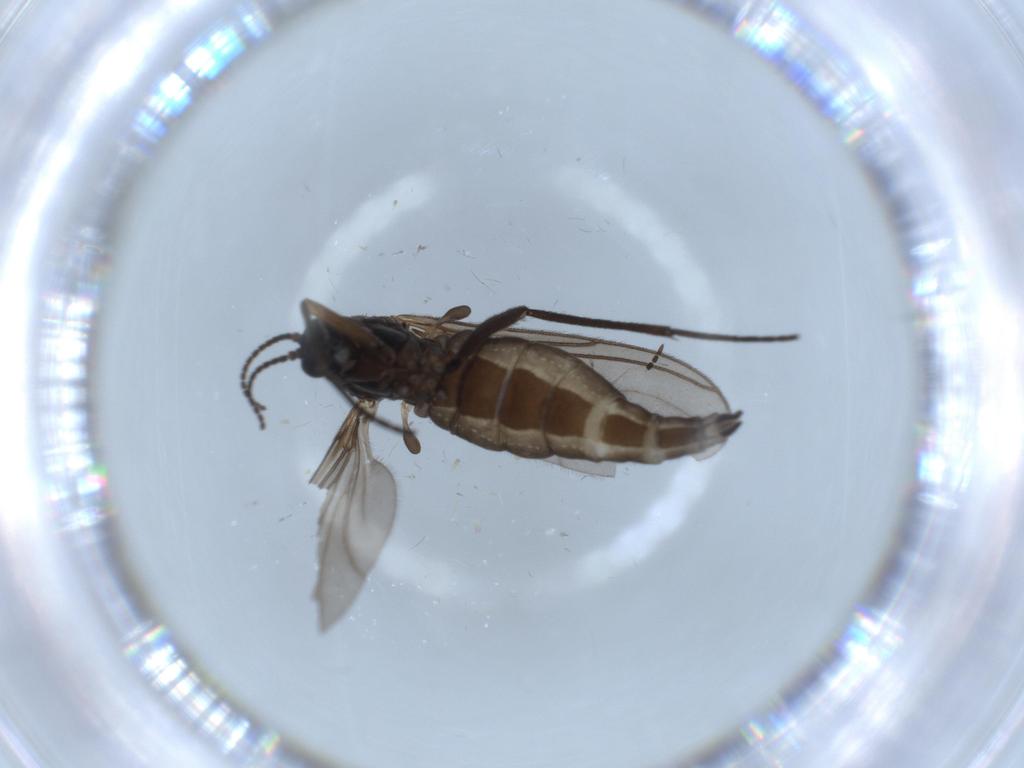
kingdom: Animalia
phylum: Arthropoda
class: Insecta
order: Diptera
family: Sciaridae
